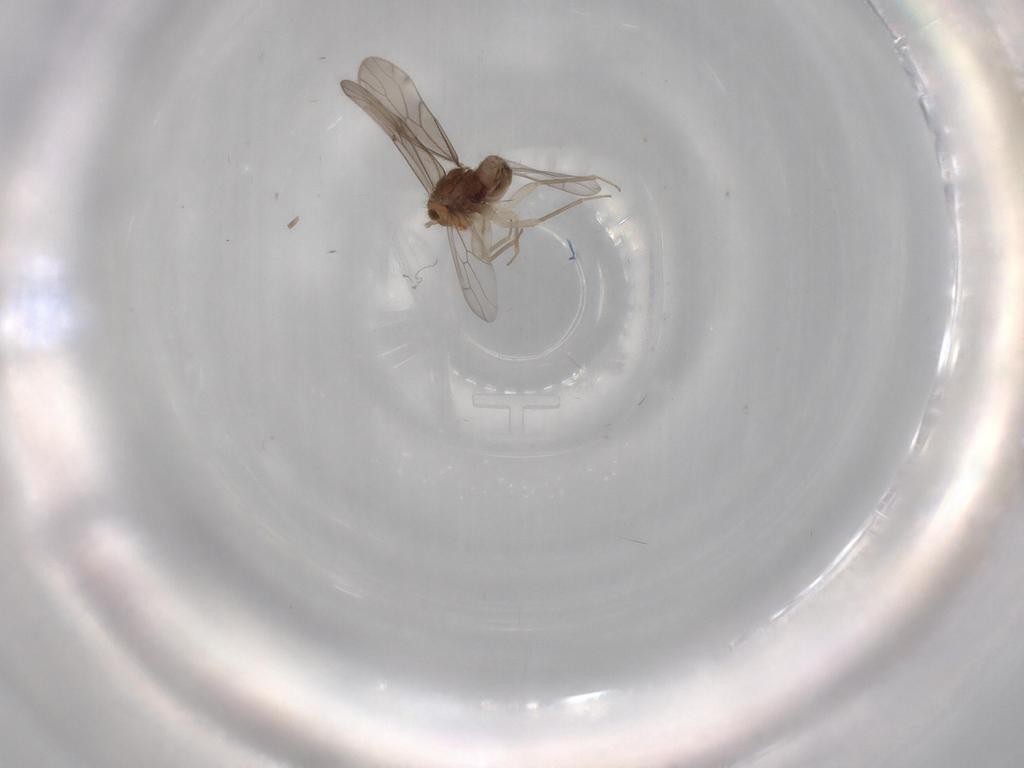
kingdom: Animalia
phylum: Arthropoda
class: Insecta
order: Psocodea
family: Ectopsocidae
